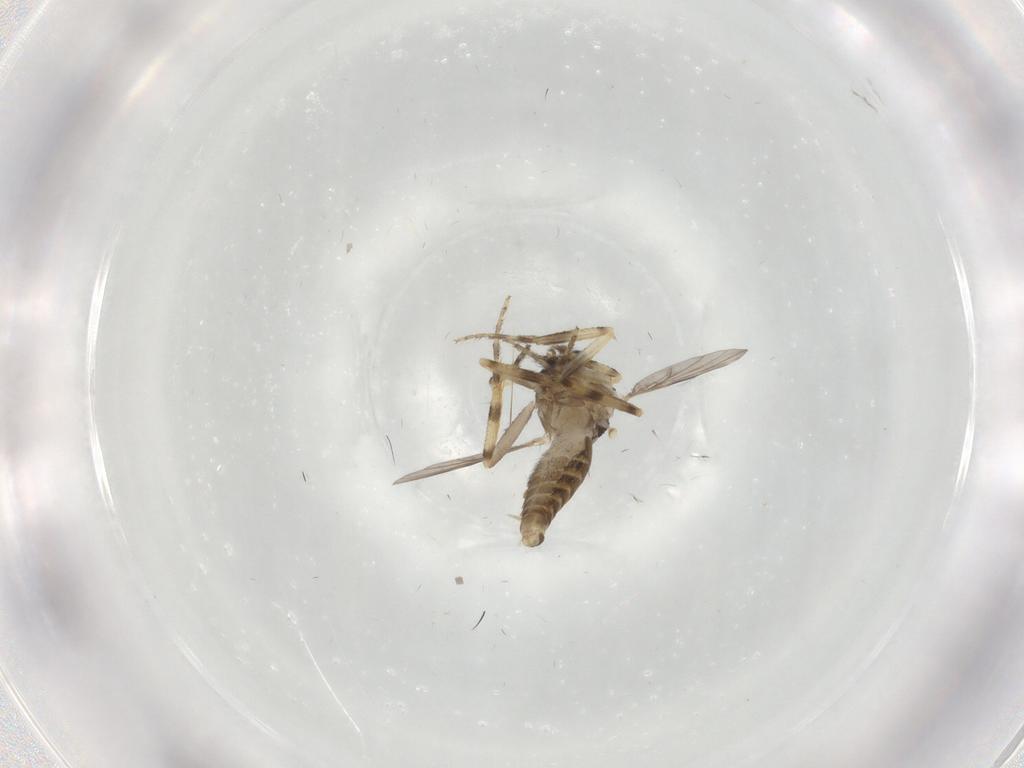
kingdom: Animalia
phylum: Arthropoda
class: Insecta
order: Diptera
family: Ceratopogonidae
